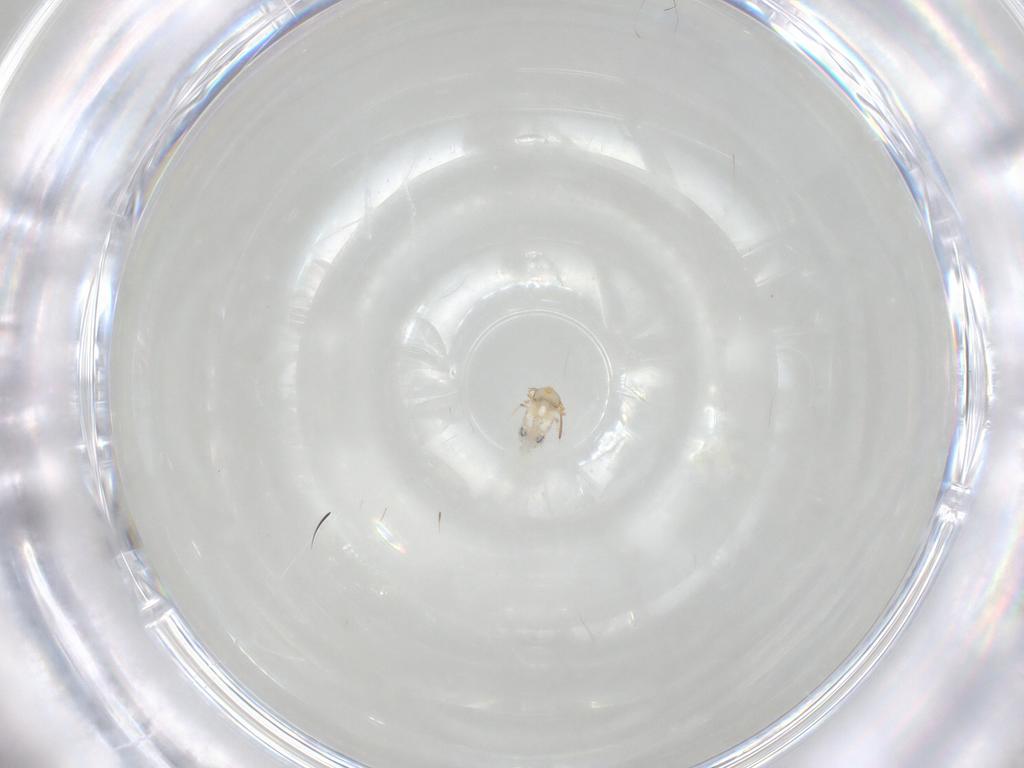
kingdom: Animalia
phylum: Arthropoda
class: Collembola
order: Symphypleona
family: Bourletiellidae
